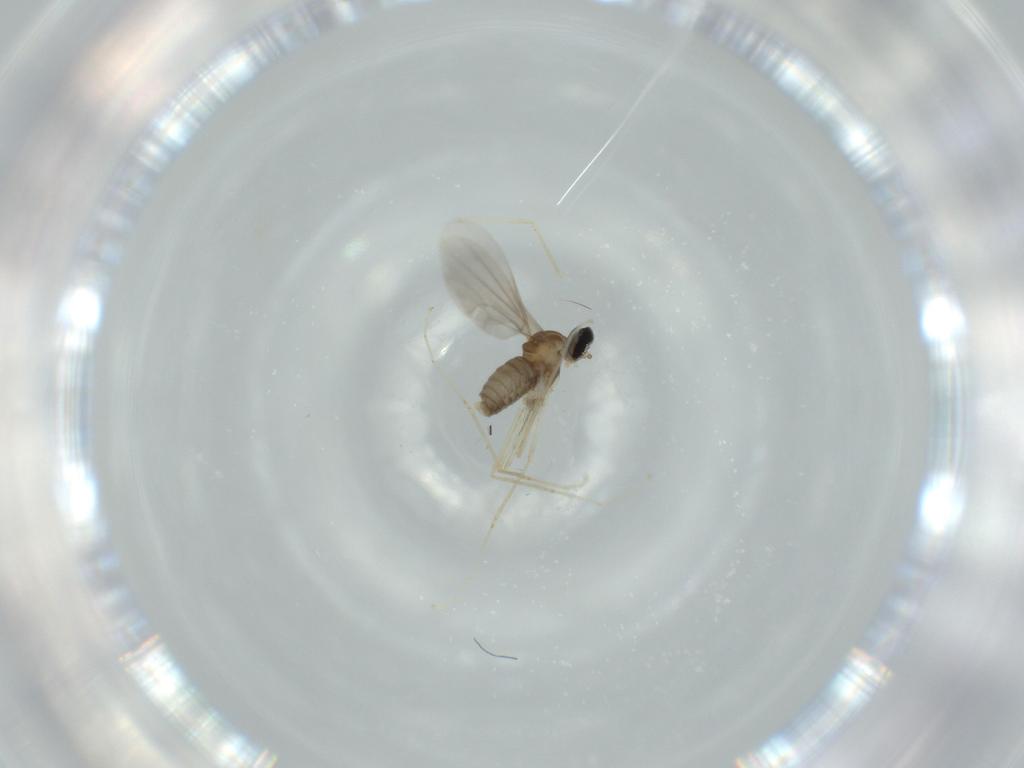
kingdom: Animalia
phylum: Arthropoda
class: Insecta
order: Diptera
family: Cecidomyiidae
